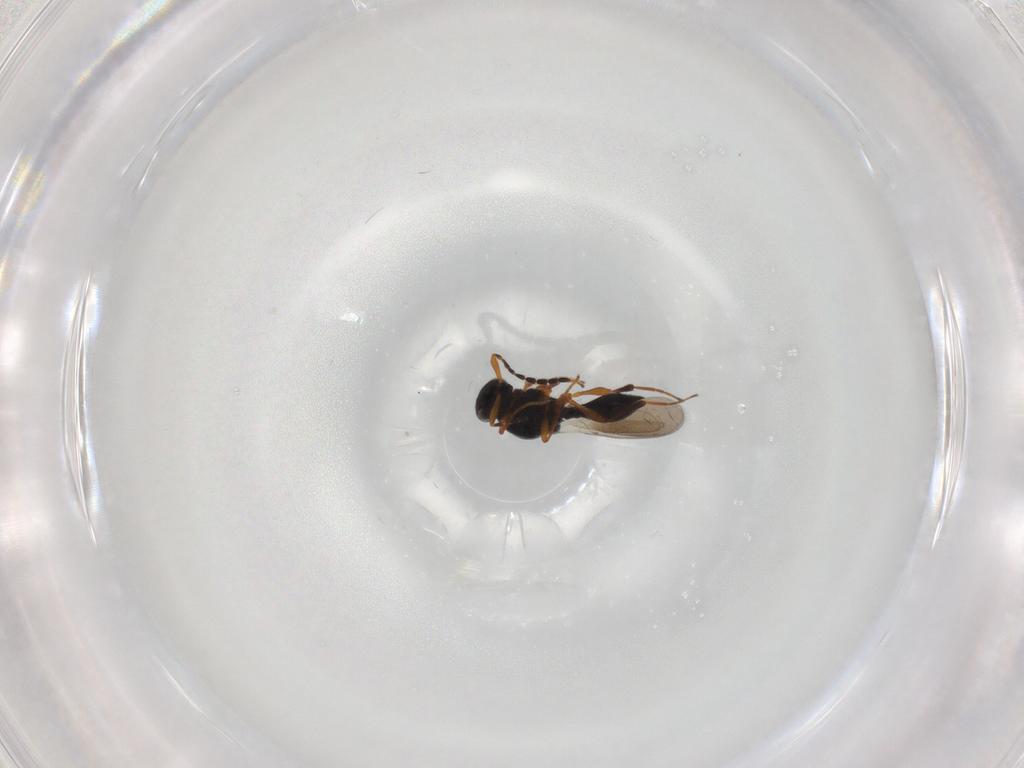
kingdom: Animalia
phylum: Arthropoda
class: Insecta
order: Hymenoptera
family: Platygastridae
